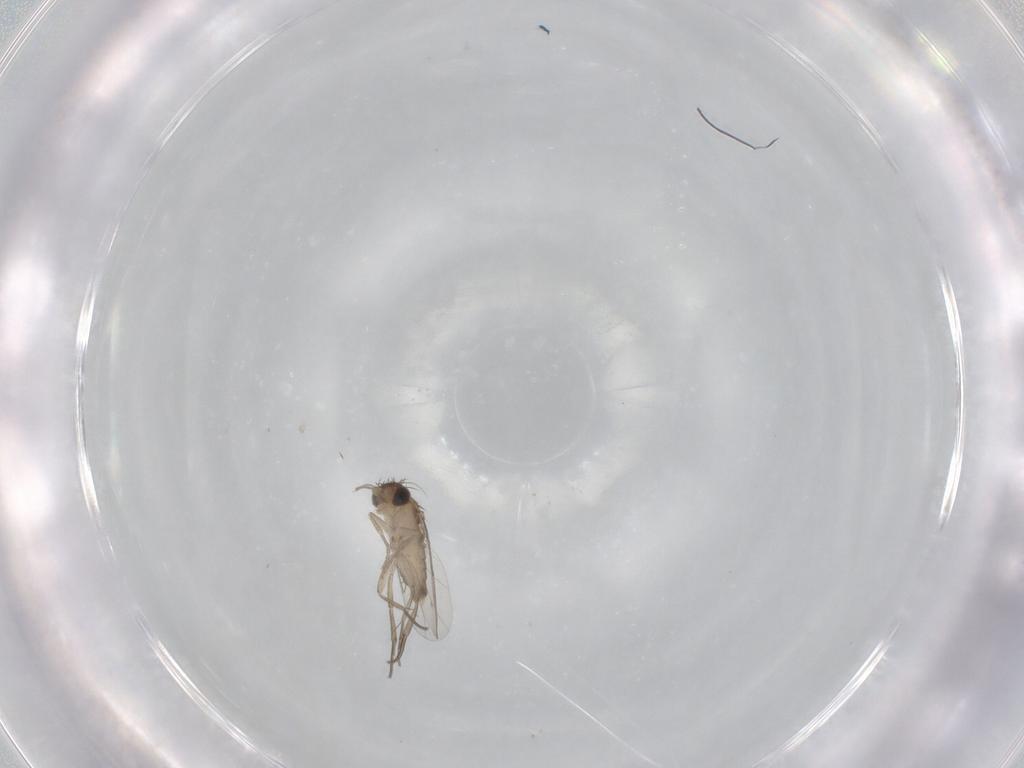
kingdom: Animalia
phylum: Arthropoda
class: Insecta
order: Diptera
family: Phoridae
